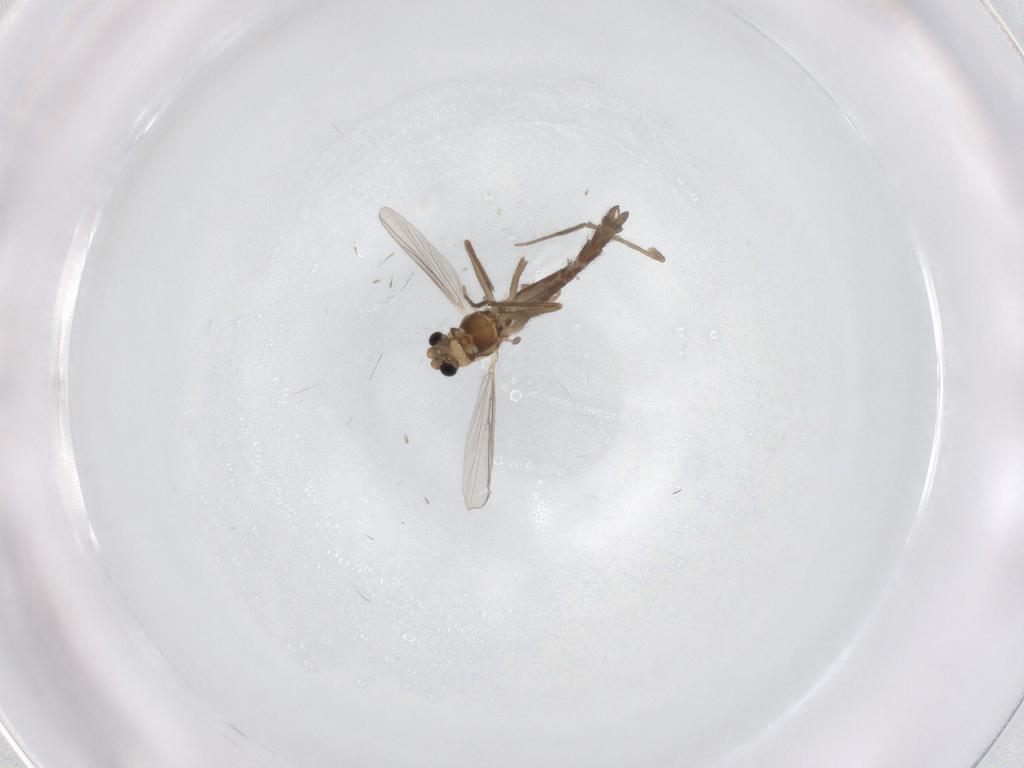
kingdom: Animalia
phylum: Arthropoda
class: Insecta
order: Diptera
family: Chironomidae
